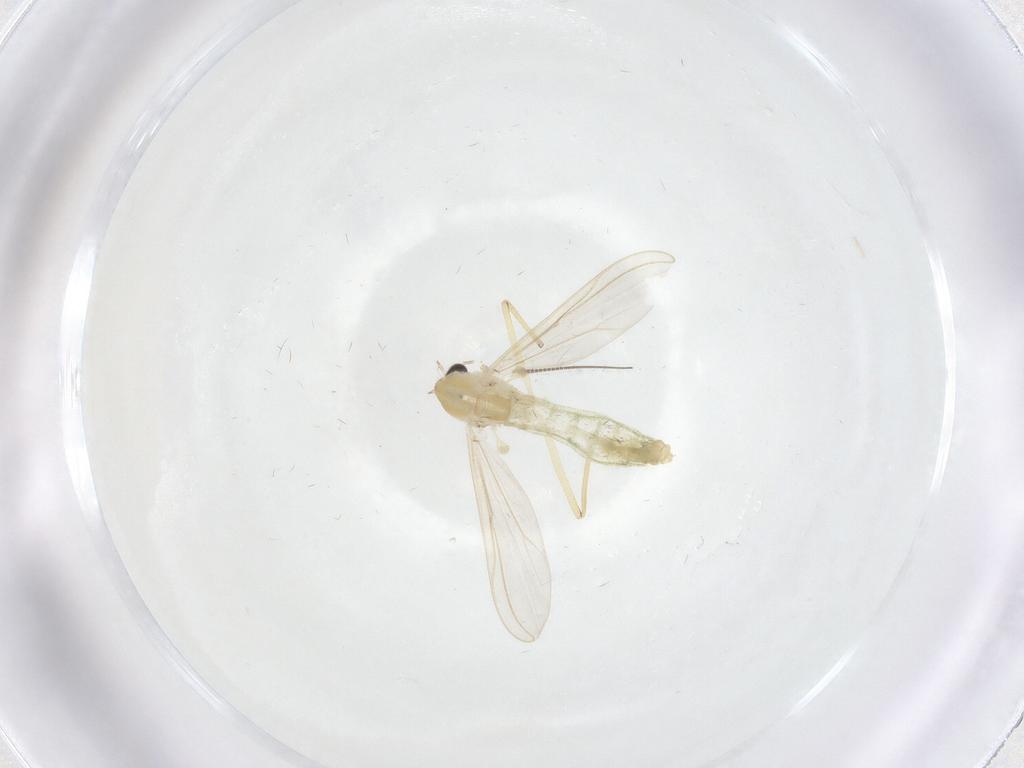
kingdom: Animalia
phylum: Arthropoda
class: Insecta
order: Diptera
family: Chironomidae
